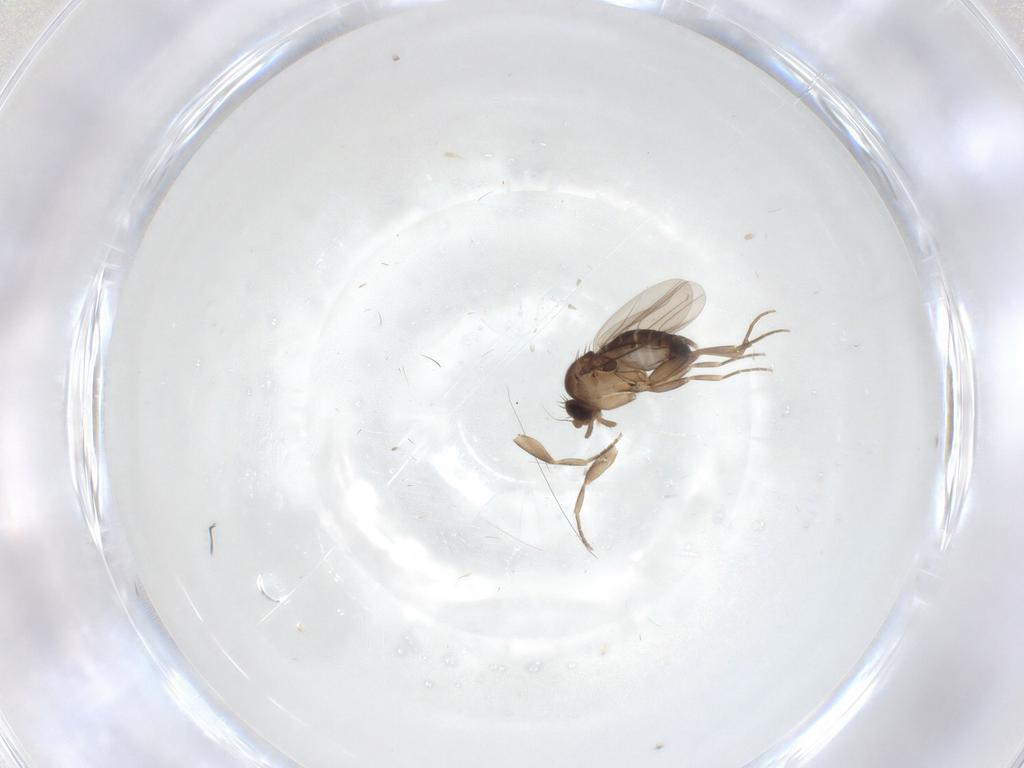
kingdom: Animalia
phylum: Arthropoda
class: Insecta
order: Diptera
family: Phoridae
